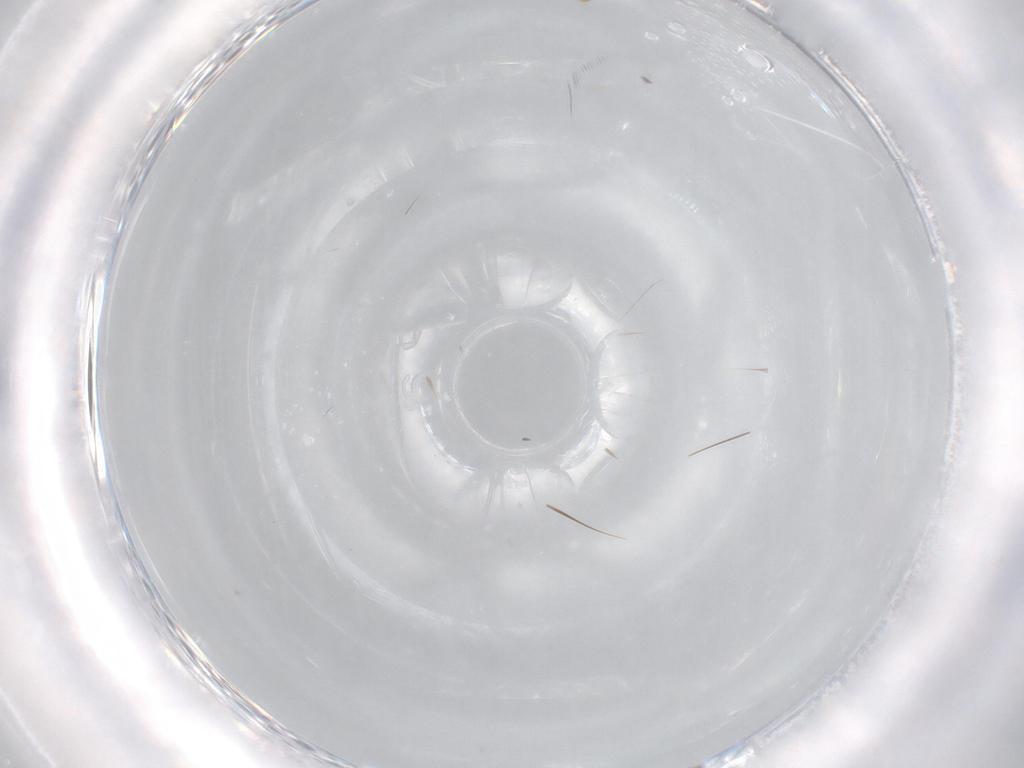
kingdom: Animalia
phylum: Arthropoda
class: Insecta
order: Diptera
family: Chironomidae
